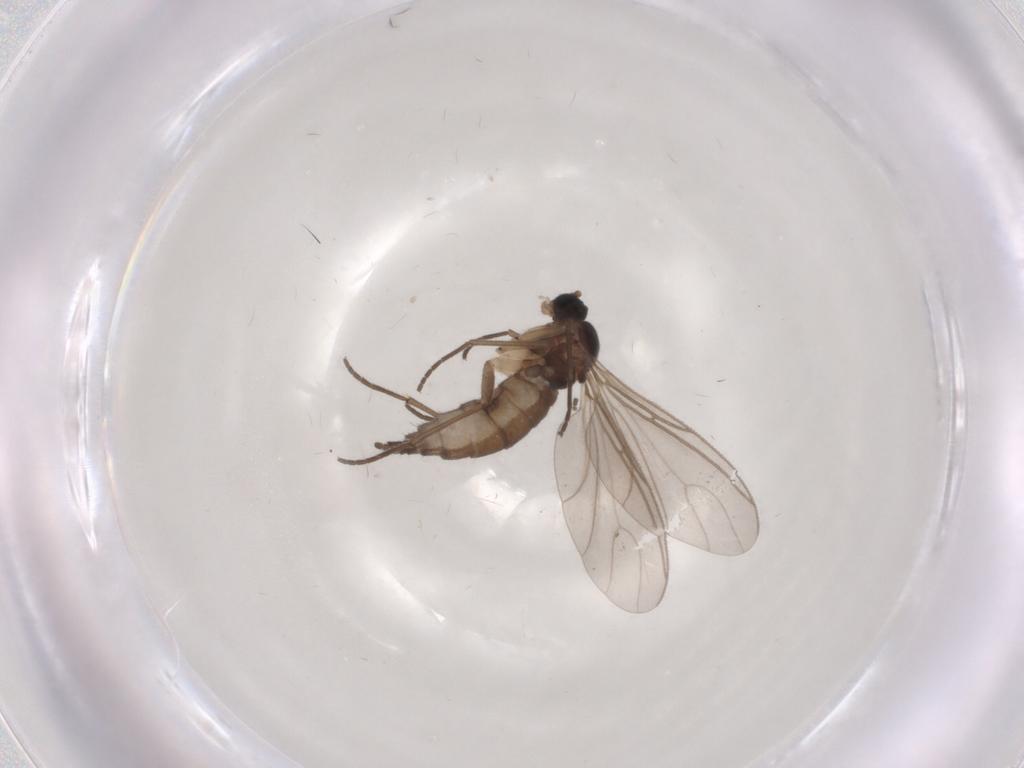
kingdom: Animalia
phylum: Arthropoda
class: Insecta
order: Diptera
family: Sciaridae
